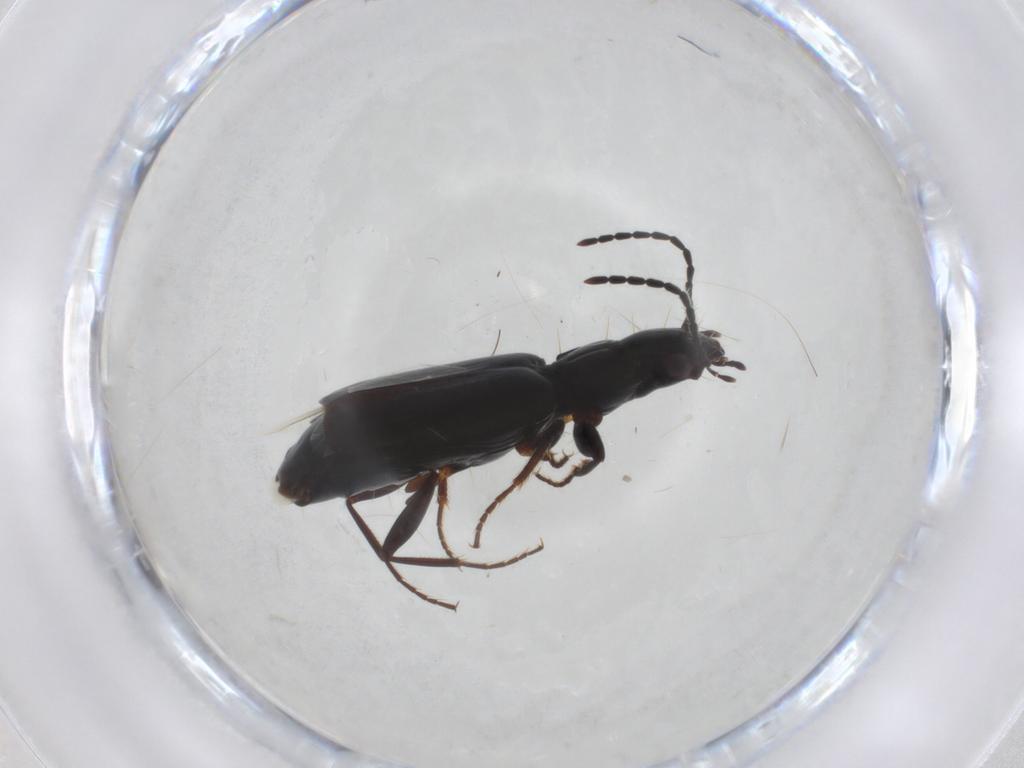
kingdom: Animalia
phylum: Arthropoda
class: Insecta
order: Coleoptera
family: Carabidae
